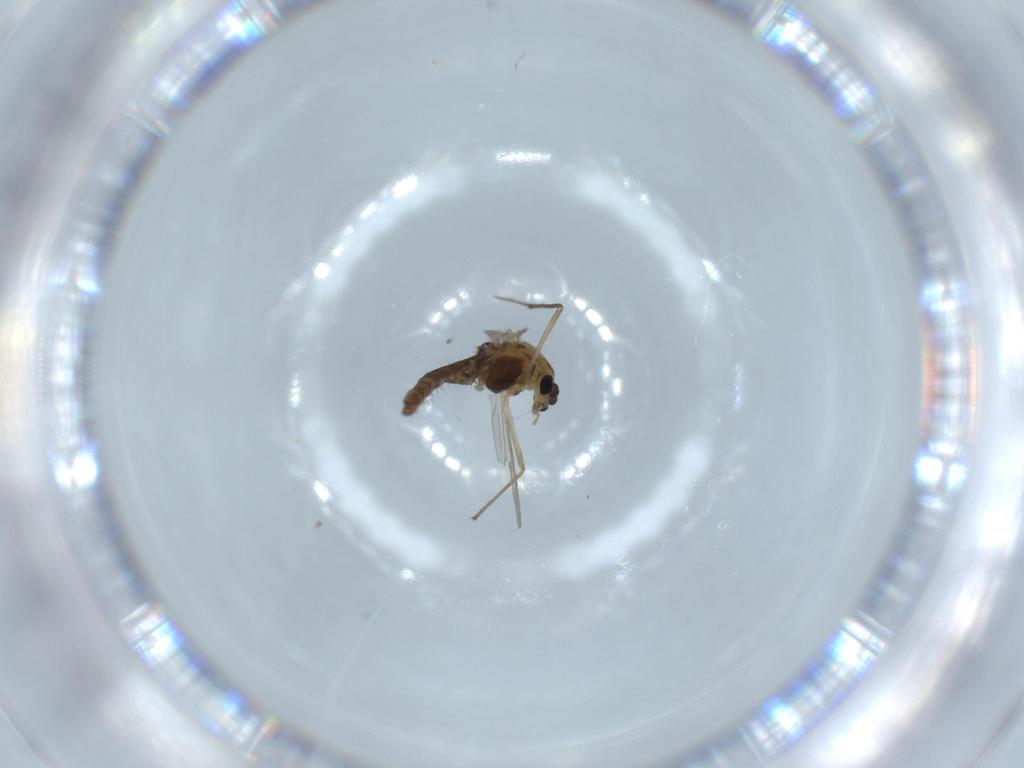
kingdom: Animalia
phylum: Arthropoda
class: Insecta
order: Diptera
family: Chironomidae
